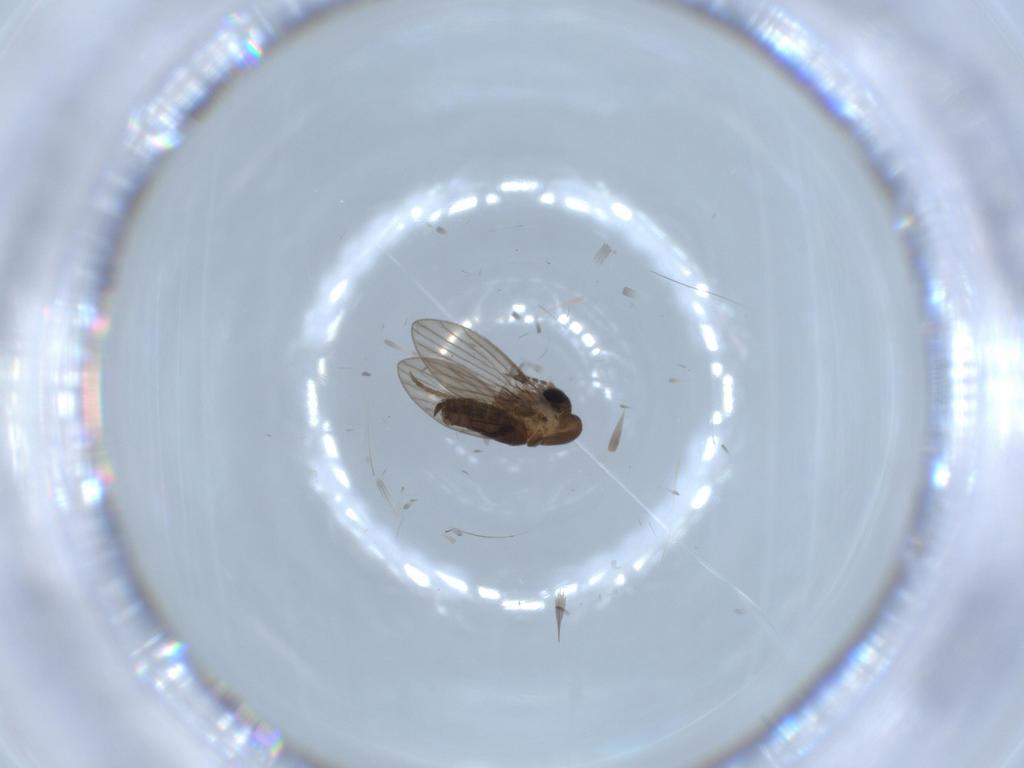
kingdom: Animalia
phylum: Arthropoda
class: Insecta
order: Diptera
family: Psychodidae
